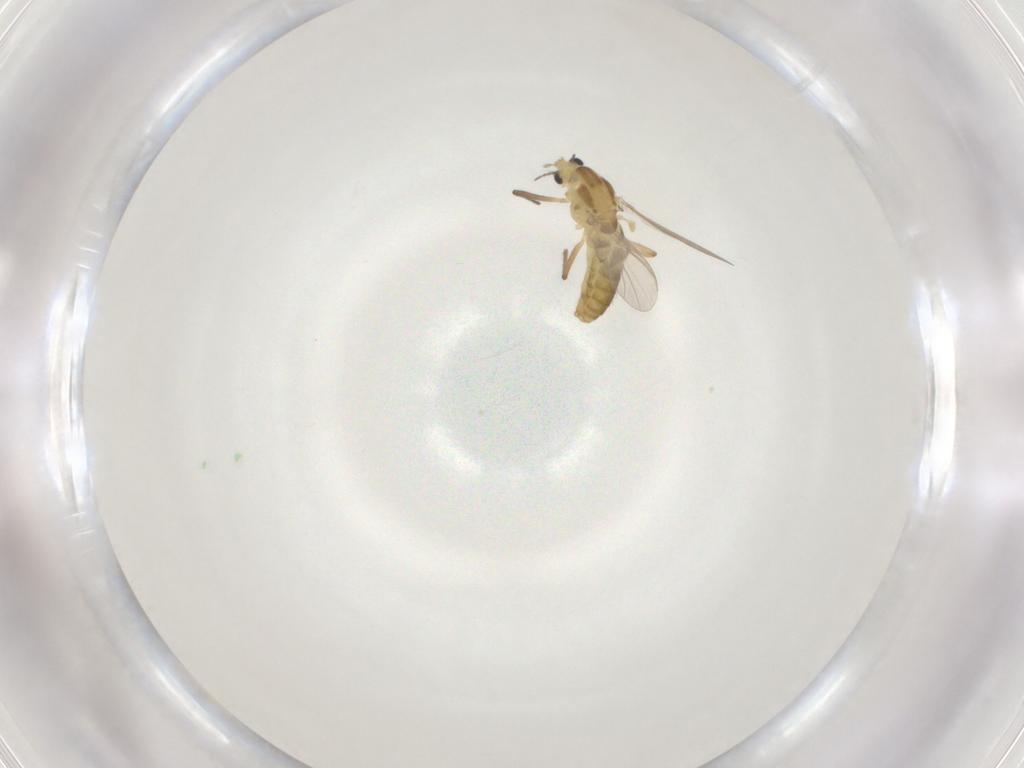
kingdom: Animalia
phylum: Arthropoda
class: Insecta
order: Diptera
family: Chironomidae
